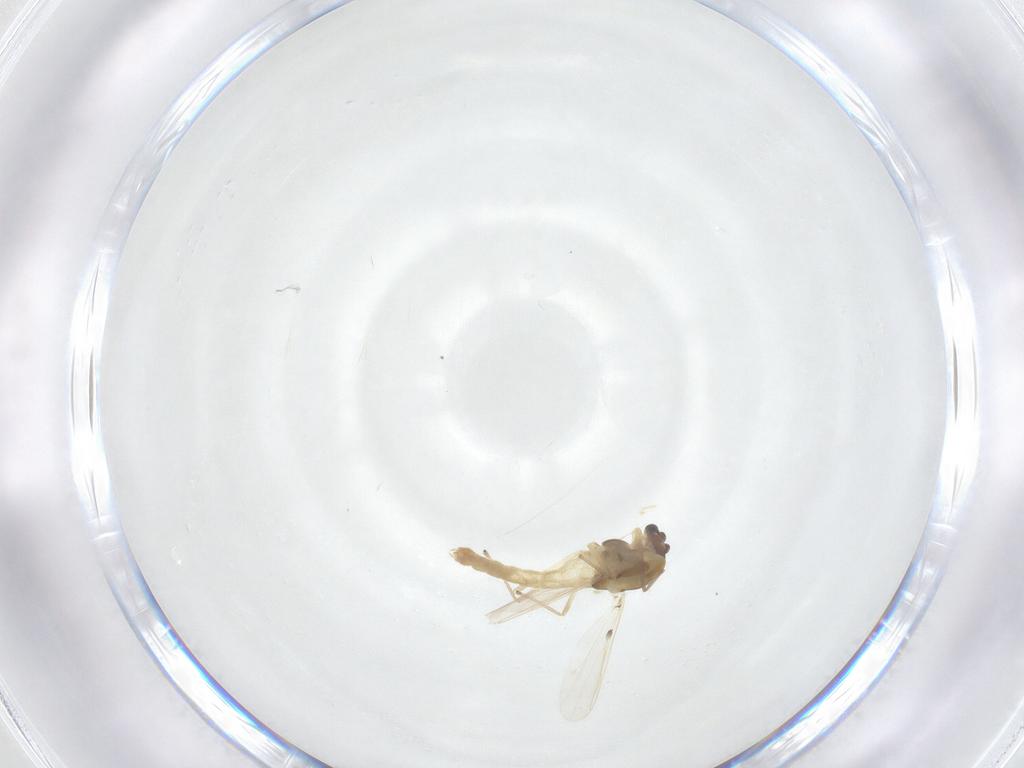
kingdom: Animalia
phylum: Arthropoda
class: Insecta
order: Diptera
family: Chironomidae
